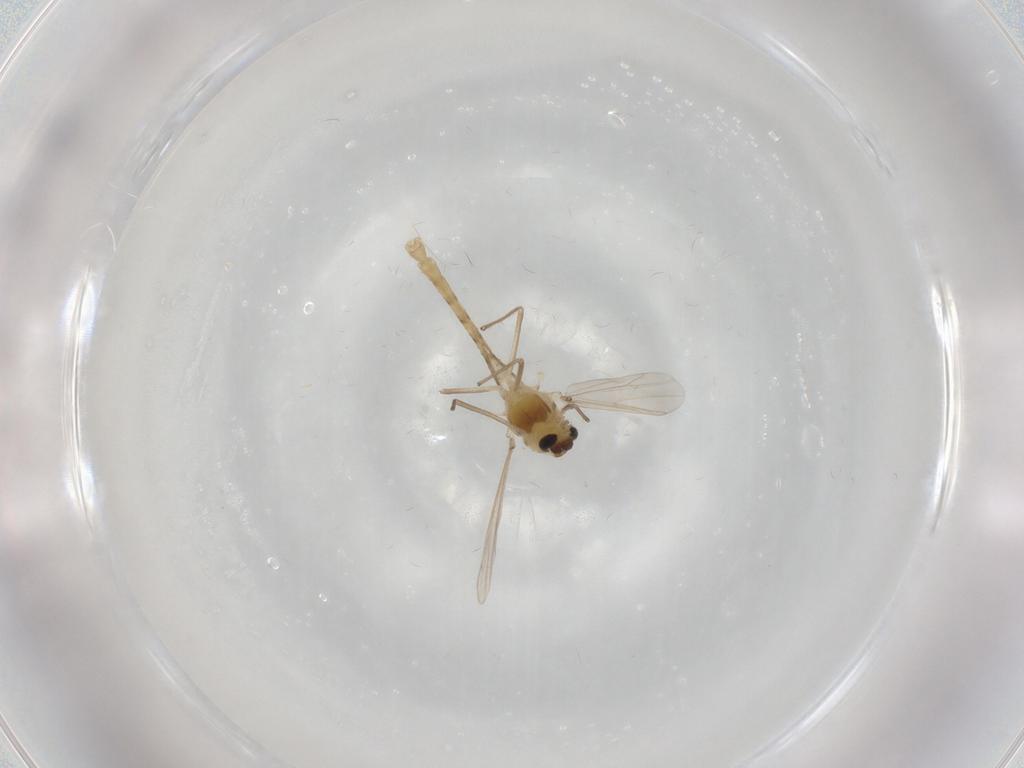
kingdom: Animalia
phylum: Arthropoda
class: Insecta
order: Diptera
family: Chironomidae
